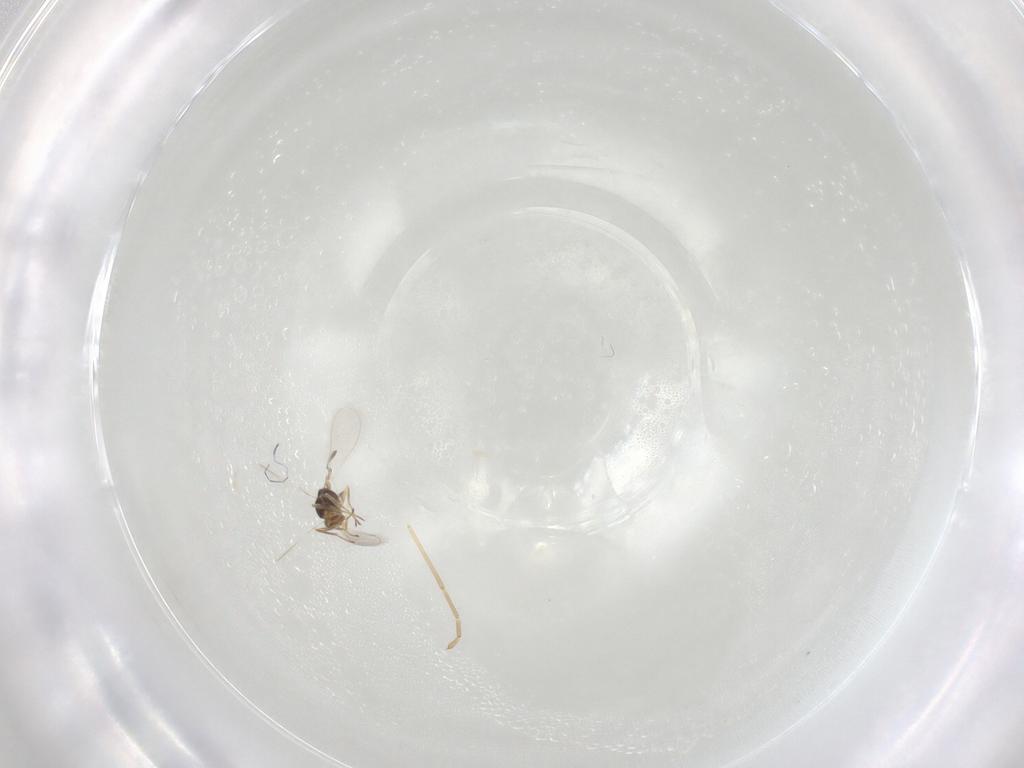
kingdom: Animalia
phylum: Arthropoda
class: Insecta
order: Hymenoptera
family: Mymaridae
